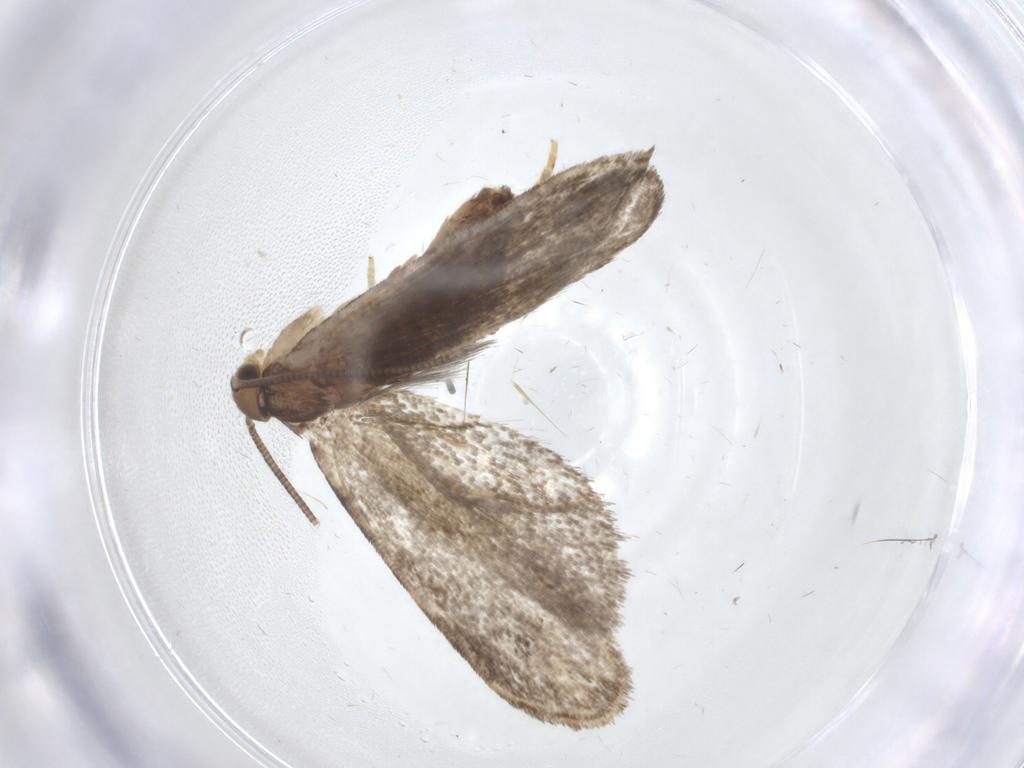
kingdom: Animalia
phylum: Arthropoda
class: Insecta
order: Lepidoptera
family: Dryadaulidae
